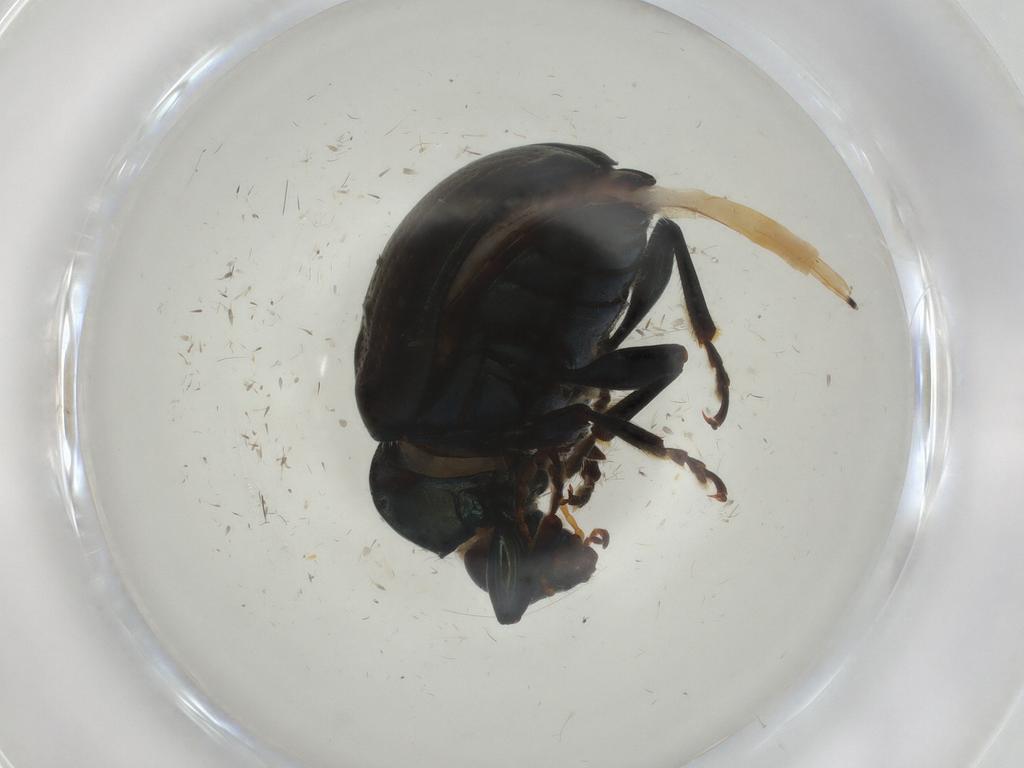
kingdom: Animalia
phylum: Arthropoda
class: Insecta
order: Coleoptera
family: Chrysomelidae
